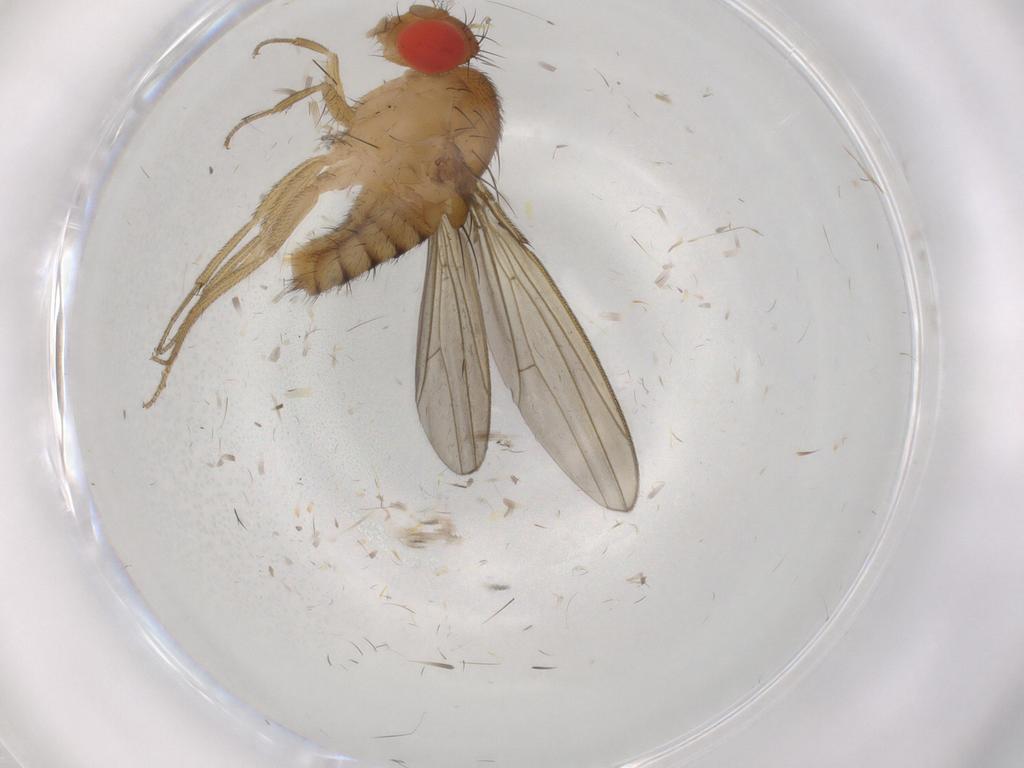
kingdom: Animalia
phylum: Arthropoda
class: Insecta
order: Diptera
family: Drosophilidae
